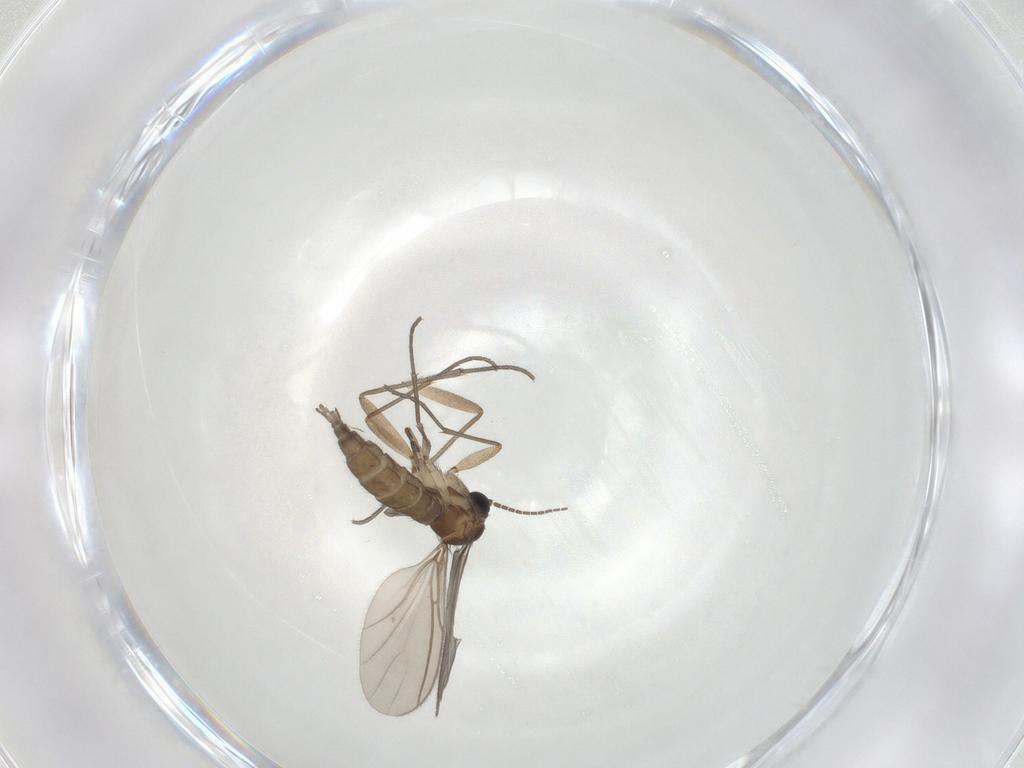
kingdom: Animalia
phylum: Arthropoda
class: Insecta
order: Diptera
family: Sciaridae
